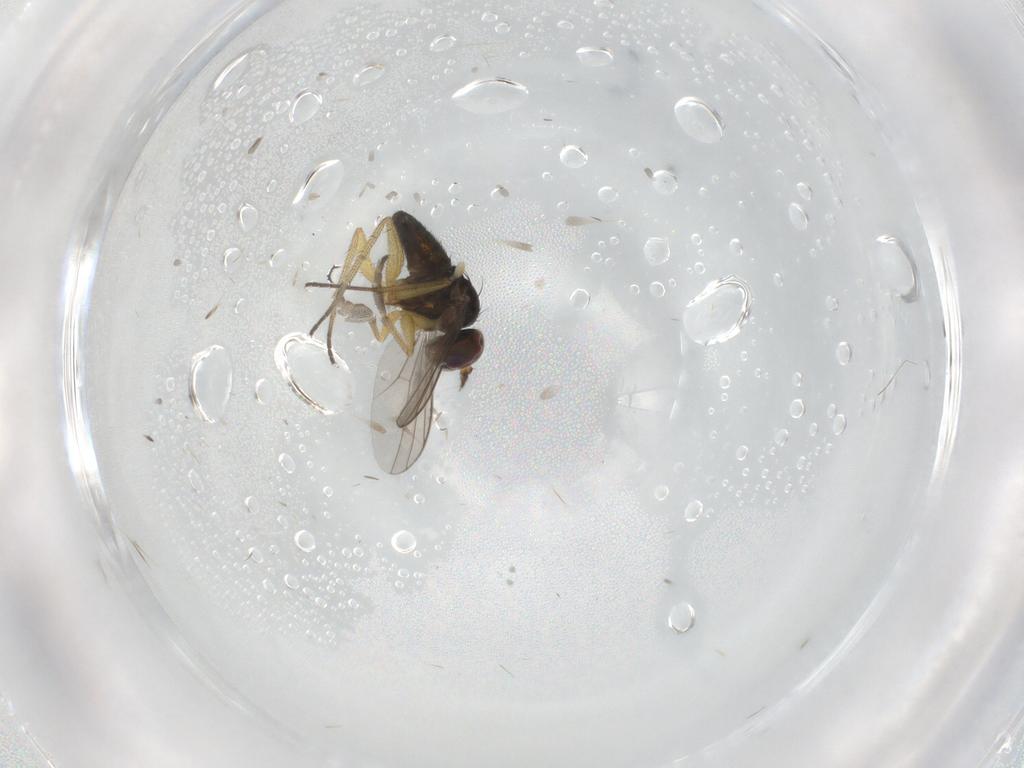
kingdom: Animalia
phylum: Arthropoda
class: Insecta
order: Diptera
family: Dolichopodidae
